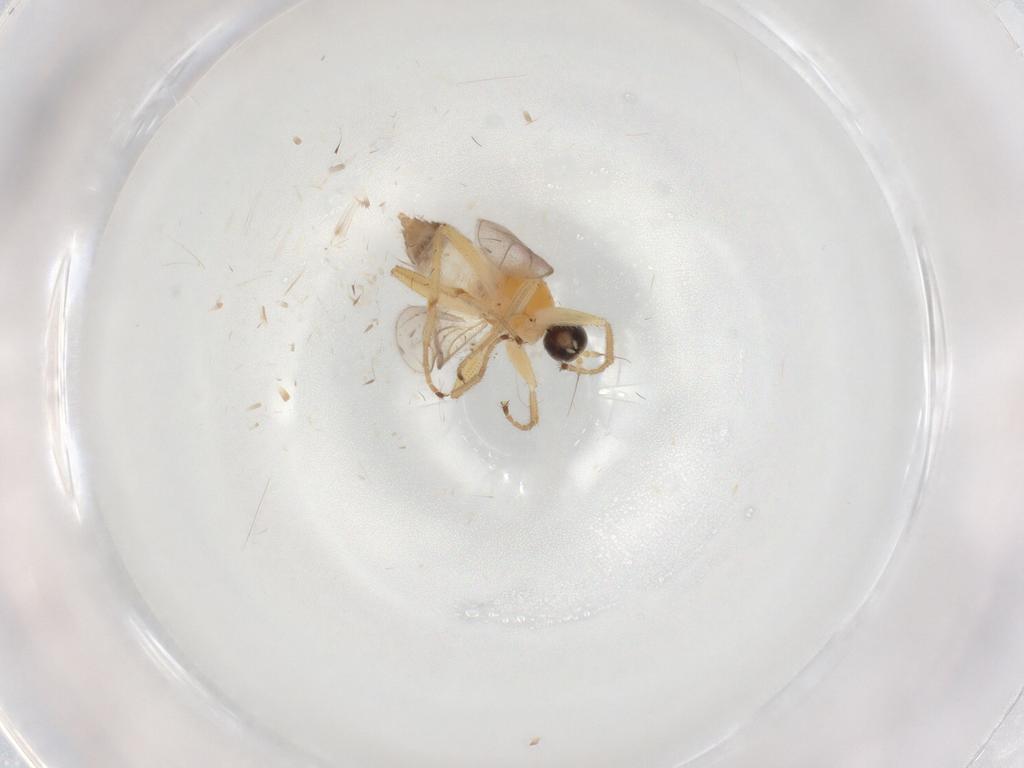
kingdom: Animalia
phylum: Arthropoda
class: Insecta
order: Diptera
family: Hybotidae
